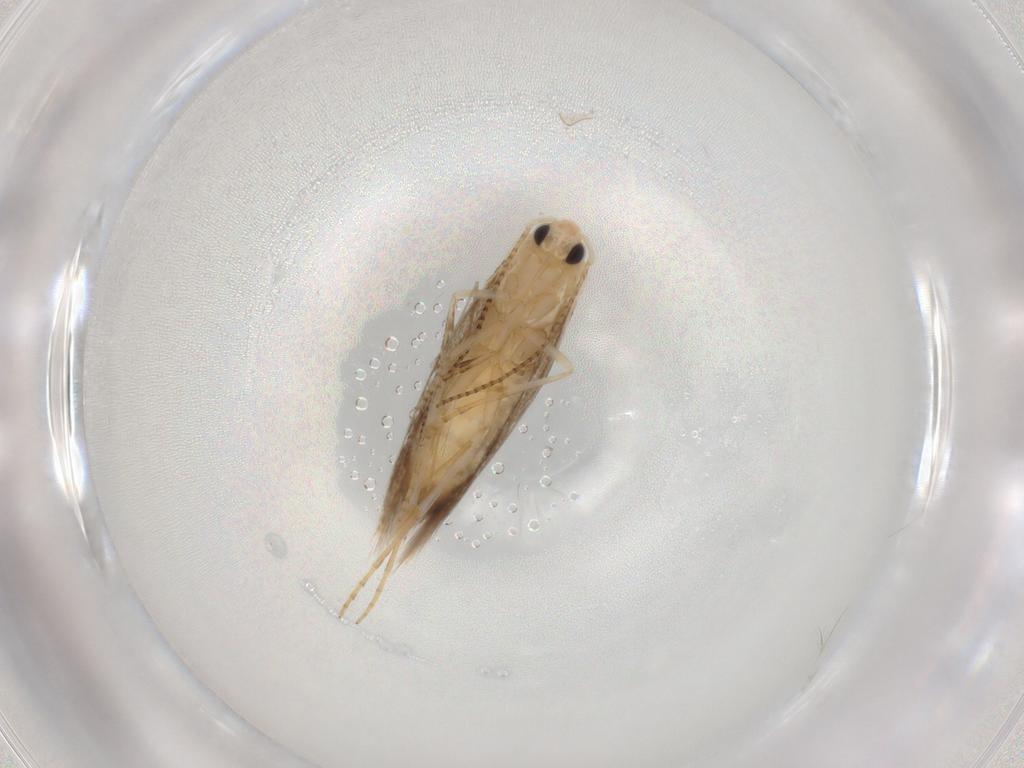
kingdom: Animalia
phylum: Arthropoda
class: Insecta
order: Lepidoptera
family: Bucculatricidae
